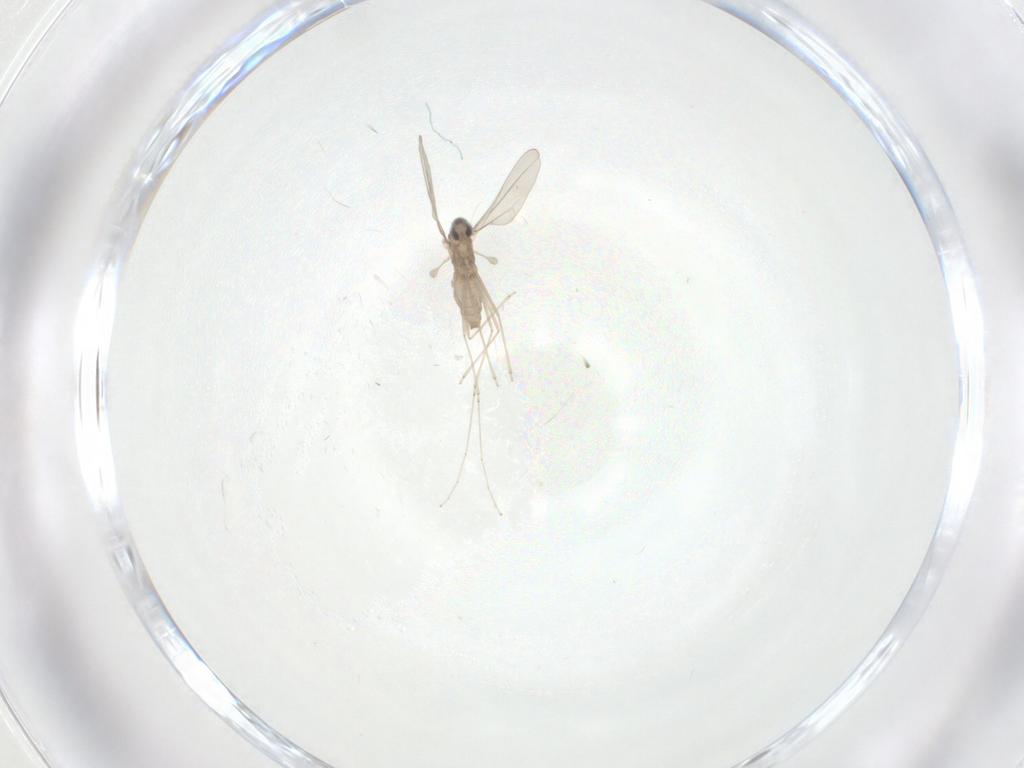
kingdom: Animalia
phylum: Arthropoda
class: Insecta
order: Diptera
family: Cecidomyiidae
